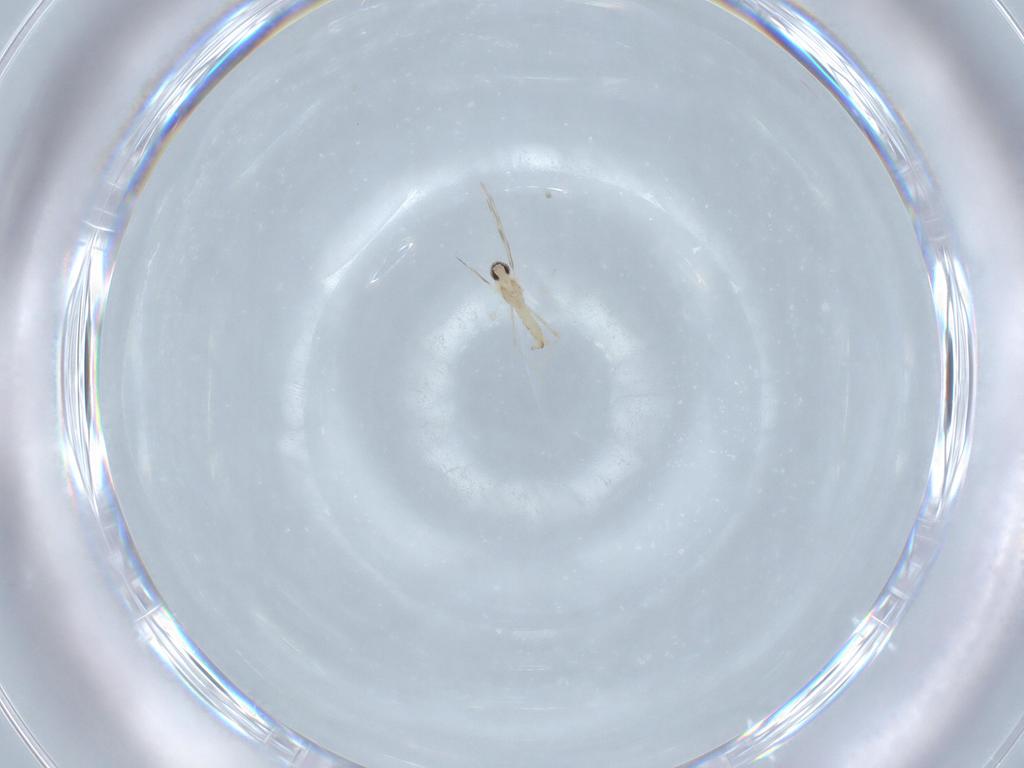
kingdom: Animalia
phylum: Arthropoda
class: Insecta
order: Diptera
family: Cecidomyiidae
